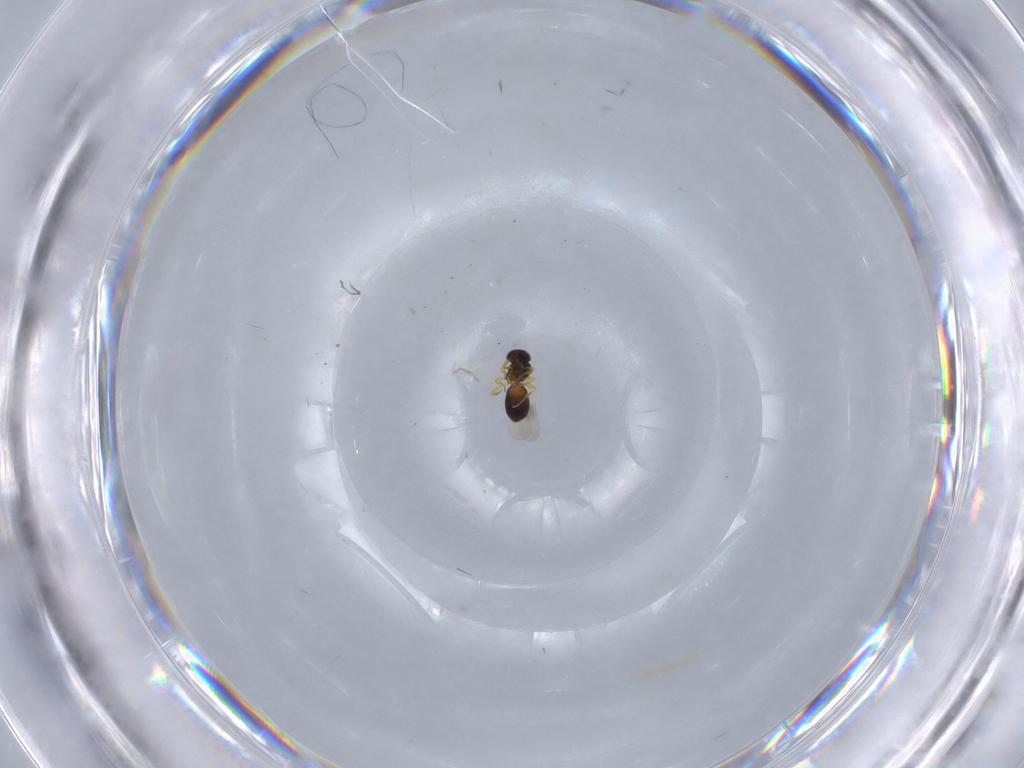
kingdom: Animalia
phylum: Arthropoda
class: Insecta
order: Hymenoptera
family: Platygastridae
